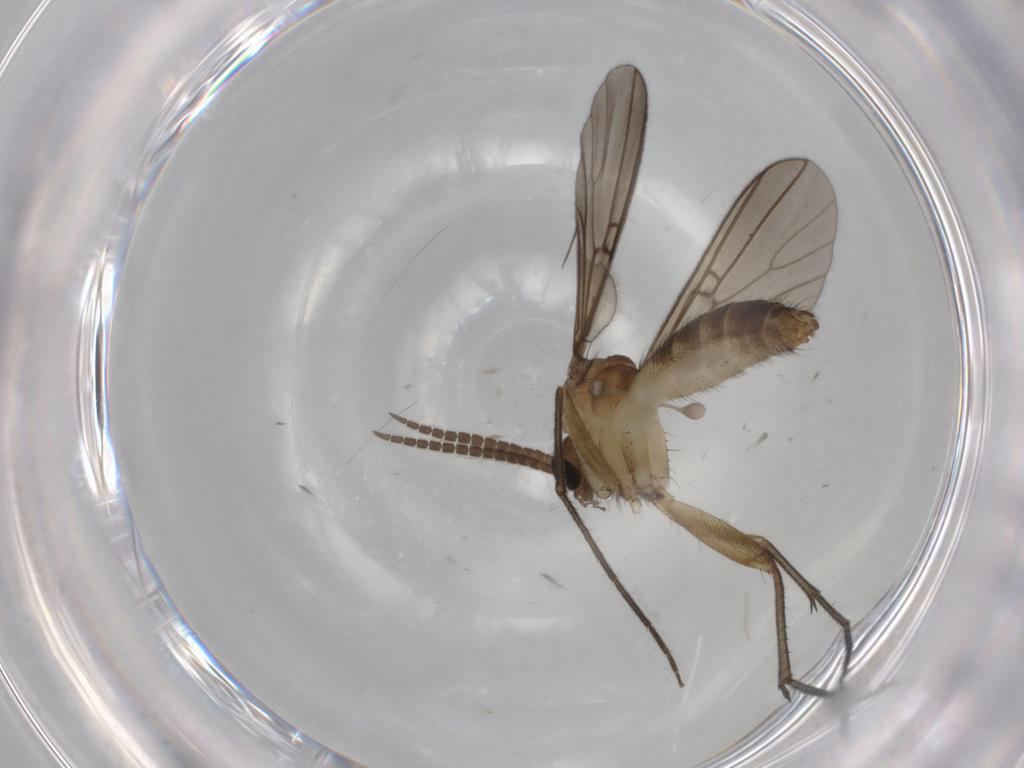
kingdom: Animalia
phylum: Arthropoda
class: Insecta
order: Diptera
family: Mycetophilidae
